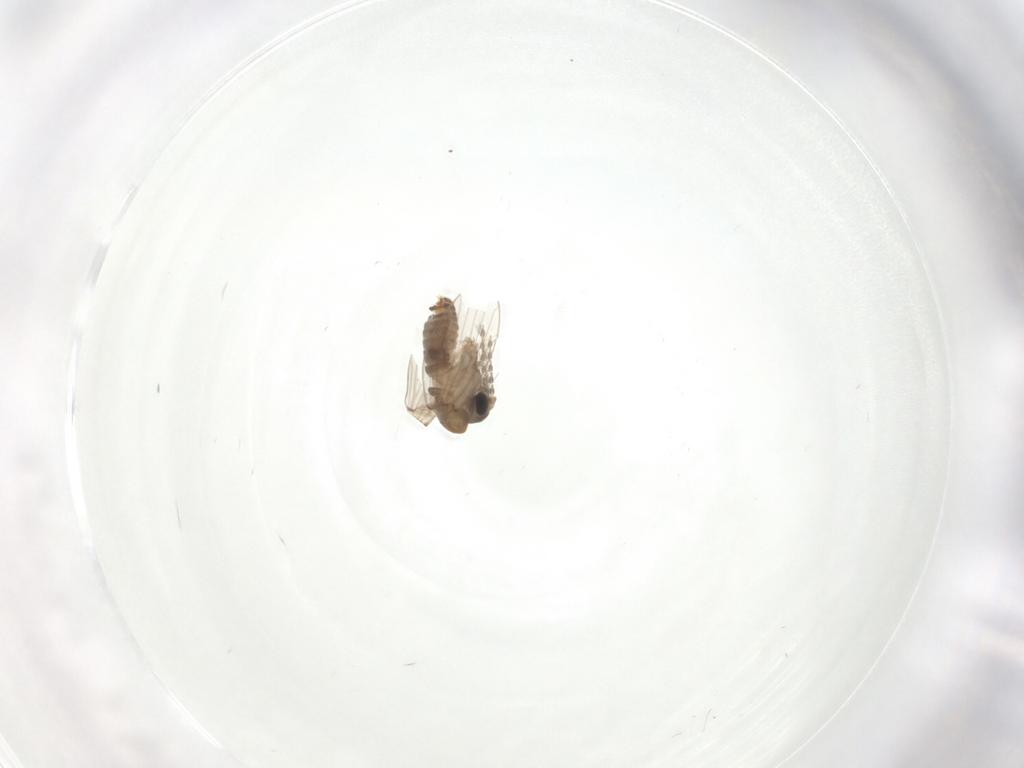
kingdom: Animalia
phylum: Arthropoda
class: Insecta
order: Diptera
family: Psychodidae
